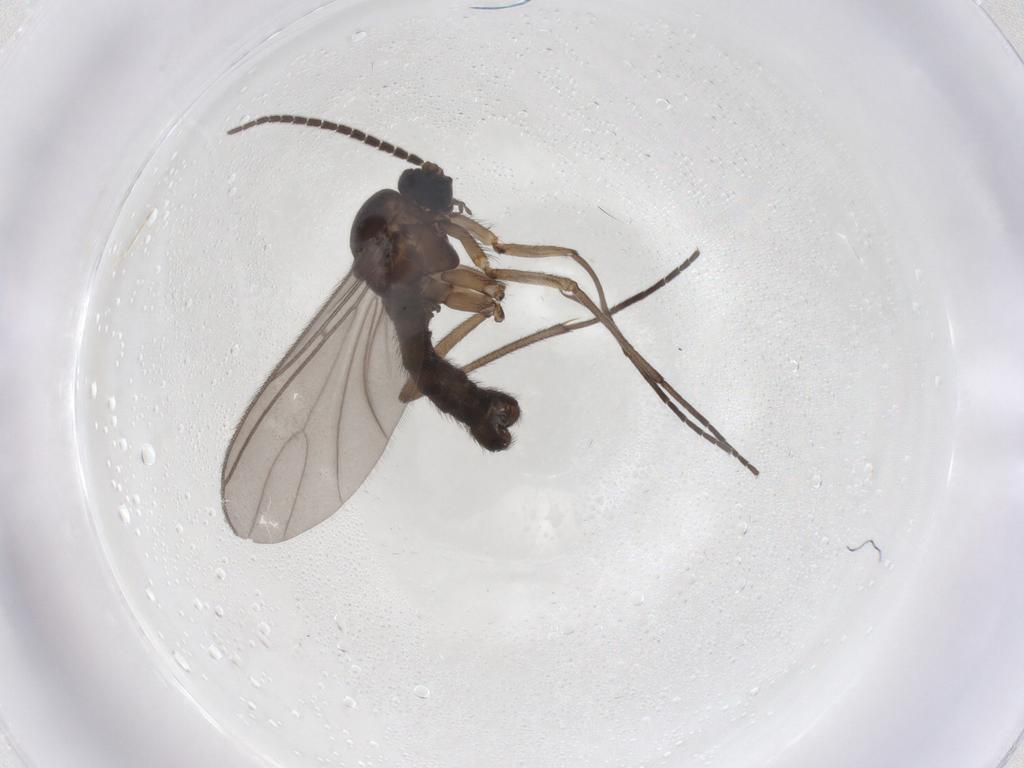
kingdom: Animalia
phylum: Arthropoda
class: Insecta
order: Diptera
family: Sciaridae
